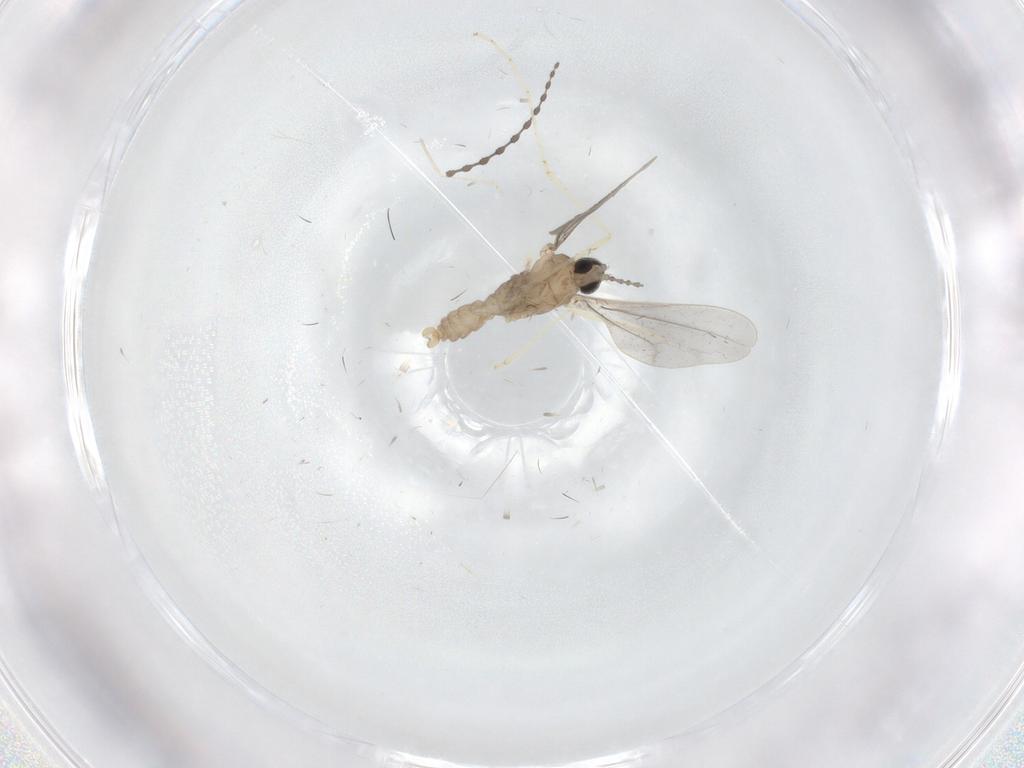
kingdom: Animalia
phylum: Arthropoda
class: Insecta
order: Diptera
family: Cecidomyiidae
